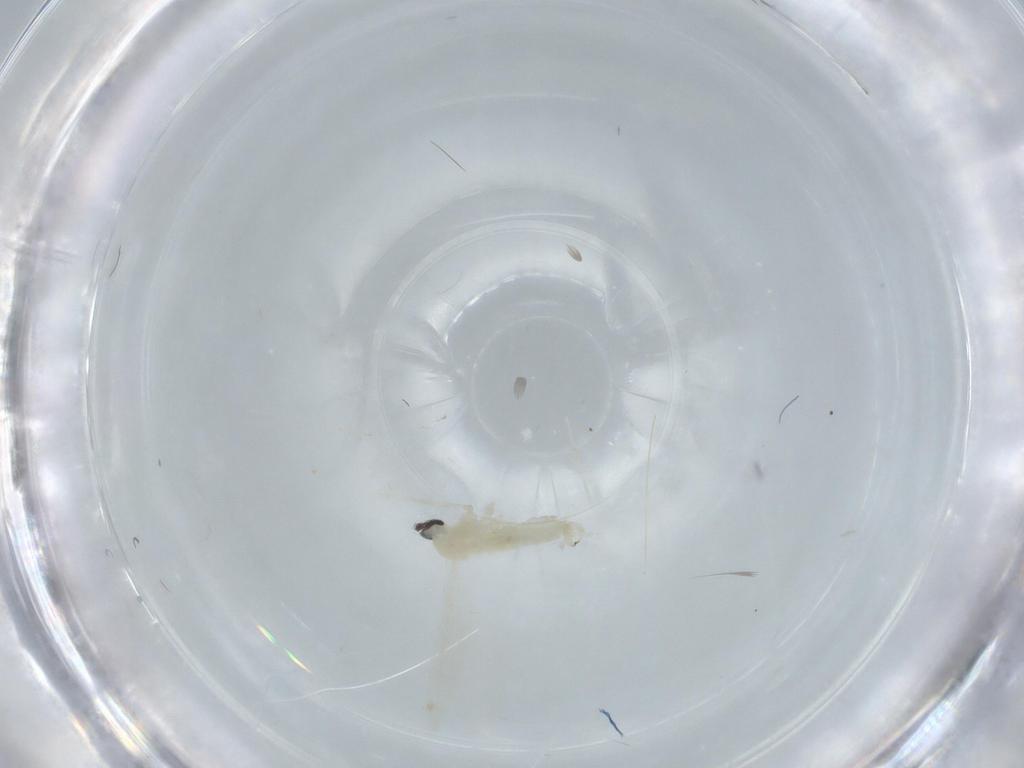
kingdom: Animalia
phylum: Arthropoda
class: Insecta
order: Diptera
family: Cecidomyiidae
